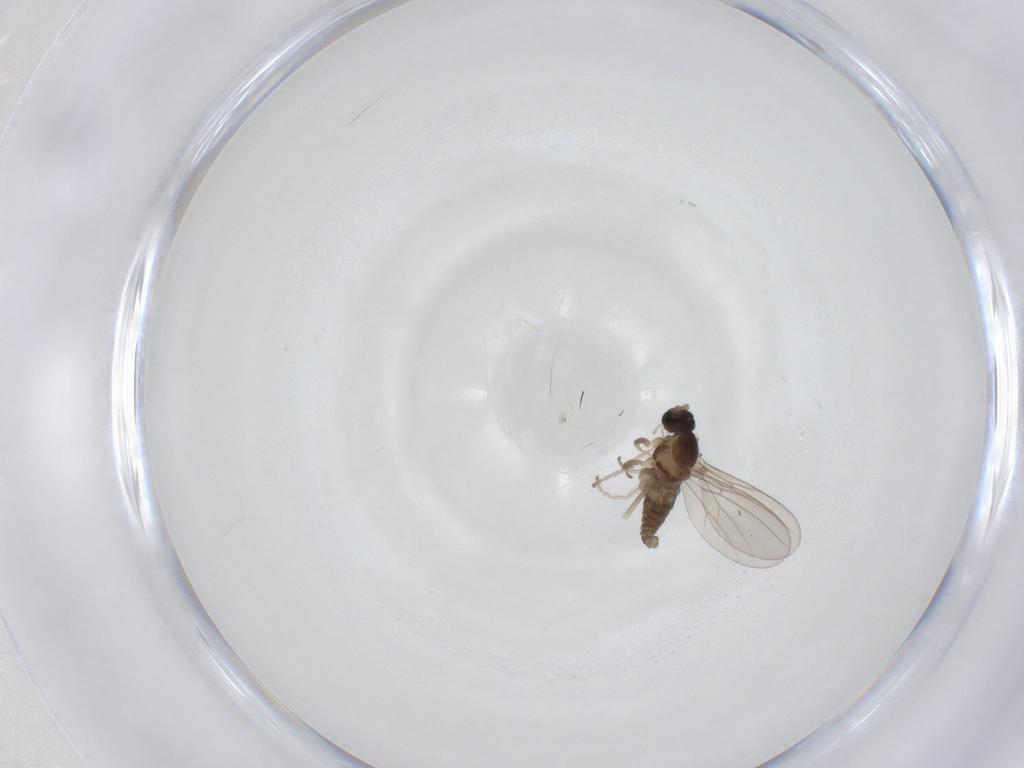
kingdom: Animalia
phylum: Arthropoda
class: Insecta
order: Diptera
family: Cecidomyiidae
